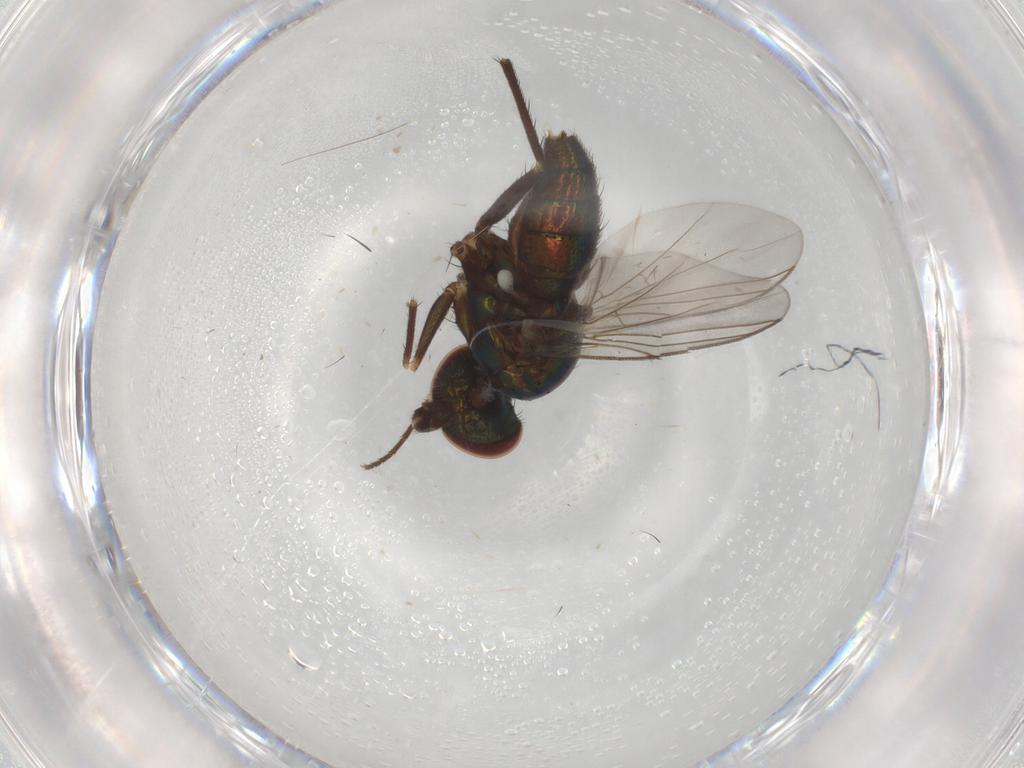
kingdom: Animalia
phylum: Arthropoda
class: Insecta
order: Diptera
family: Dolichopodidae
